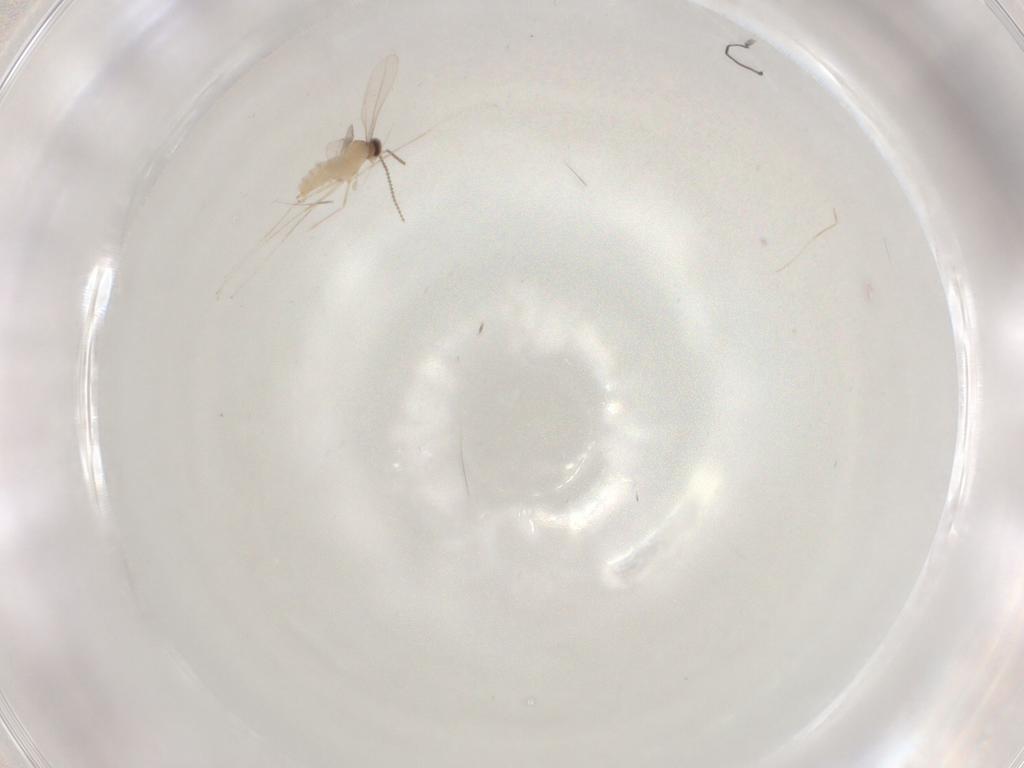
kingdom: Animalia
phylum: Arthropoda
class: Insecta
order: Diptera
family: Cecidomyiidae
